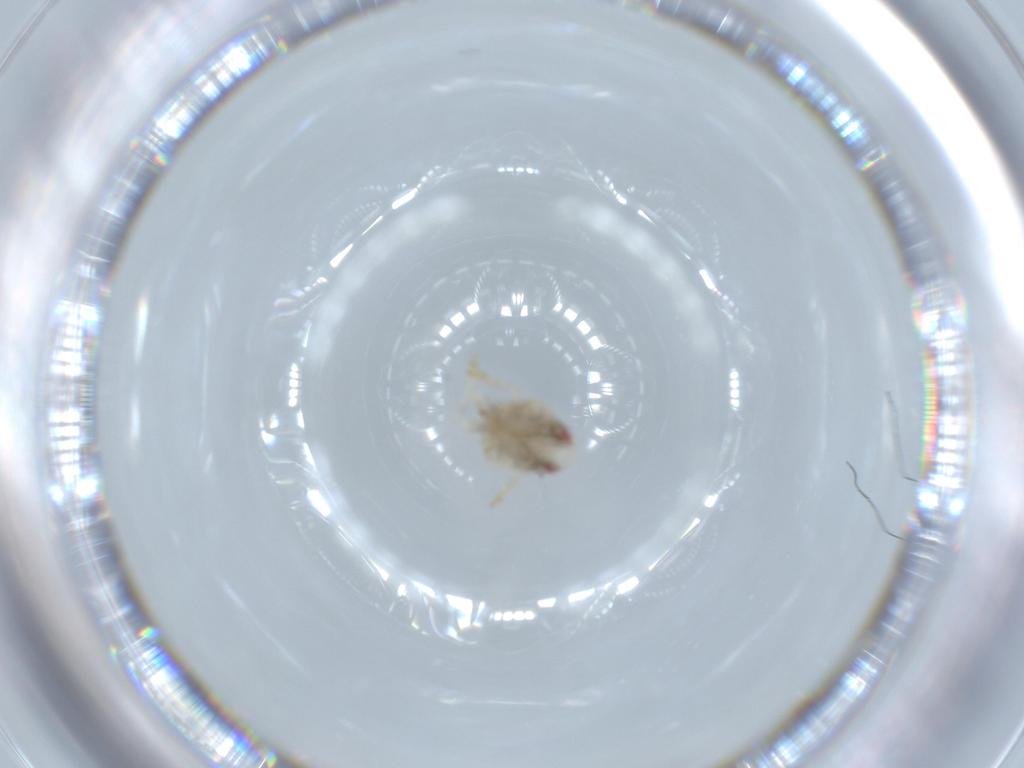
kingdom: Animalia
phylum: Arthropoda
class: Insecta
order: Hemiptera
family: Acanaloniidae
